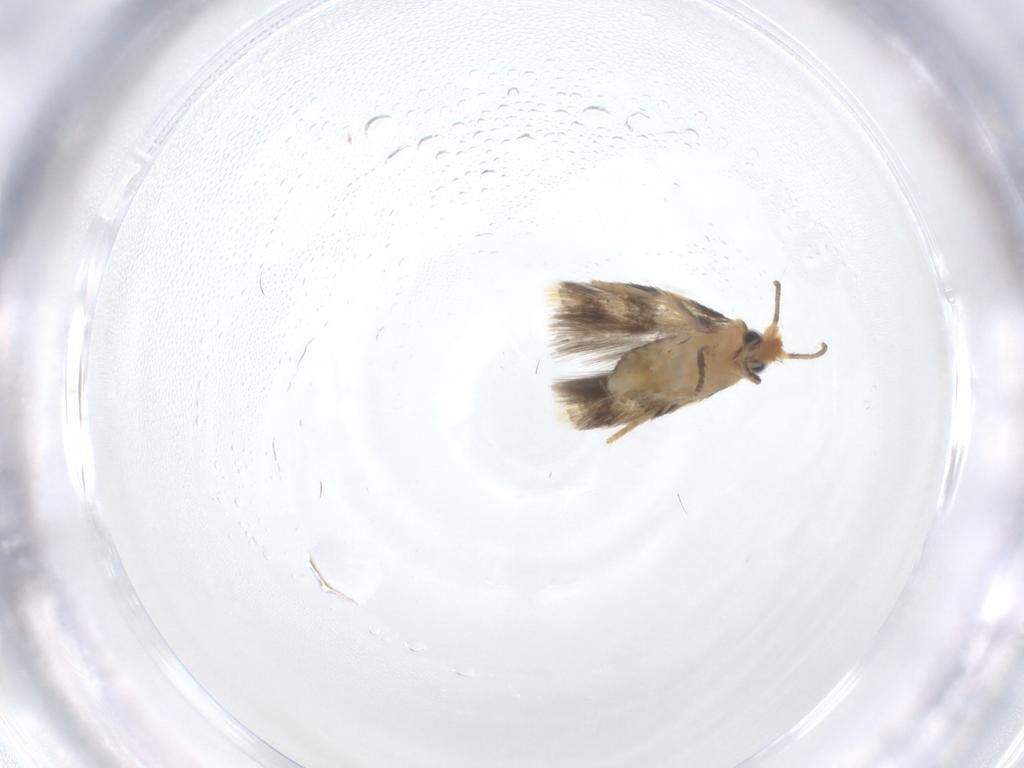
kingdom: Animalia
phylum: Arthropoda
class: Insecta
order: Lepidoptera
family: Nepticulidae
